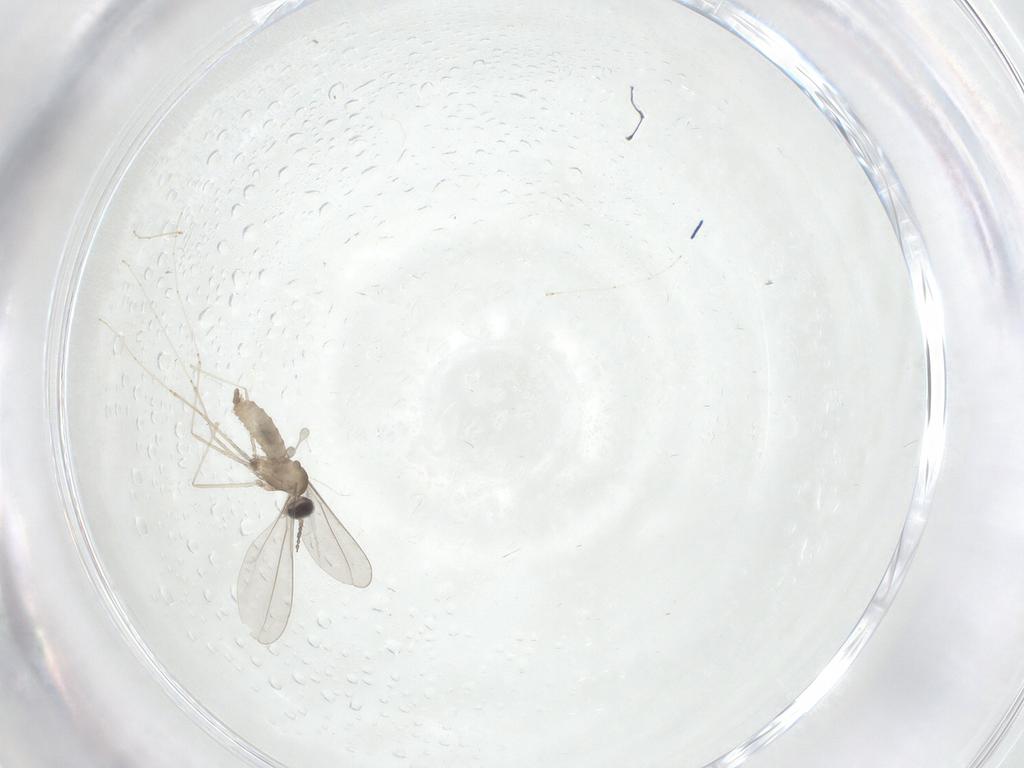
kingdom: Animalia
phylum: Arthropoda
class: Insecta
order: Diptera
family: Cecidomyiidae
